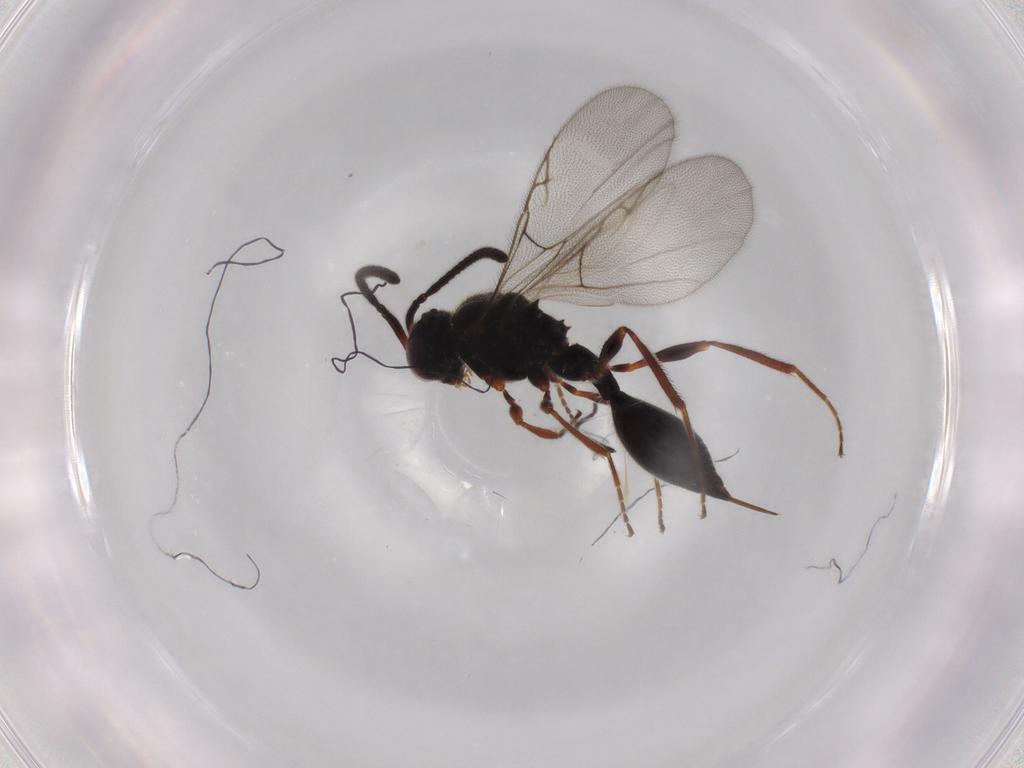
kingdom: Animalia
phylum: Arthropoda
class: Insecta
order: Hymenoptera
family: Diapriidae
